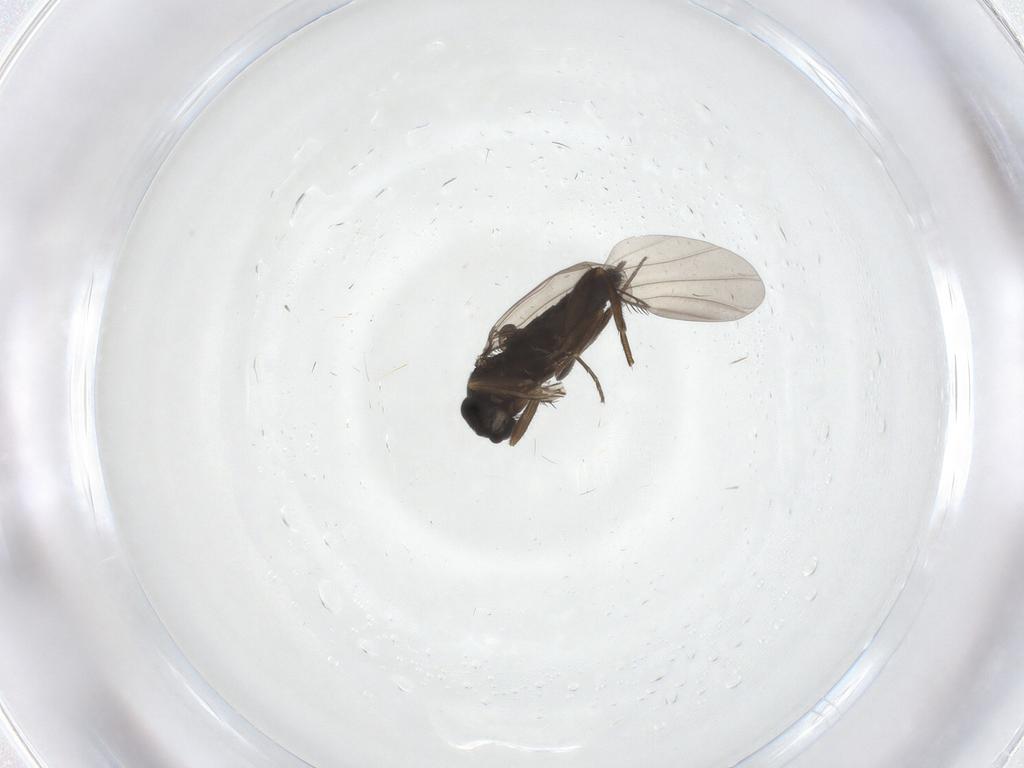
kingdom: Animalia
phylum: Arthropoda
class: Insecta
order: Diptera
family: Phoridae
